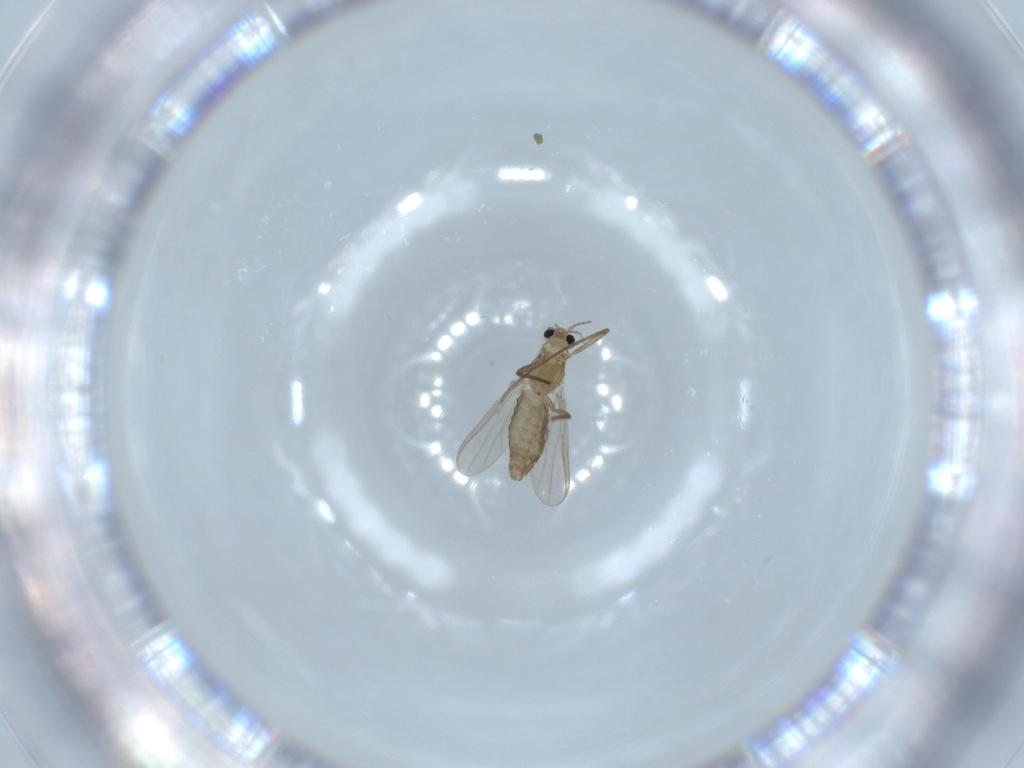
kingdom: Animalia
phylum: Arthropoda
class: Insecta
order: Diptera
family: Chironomidae
